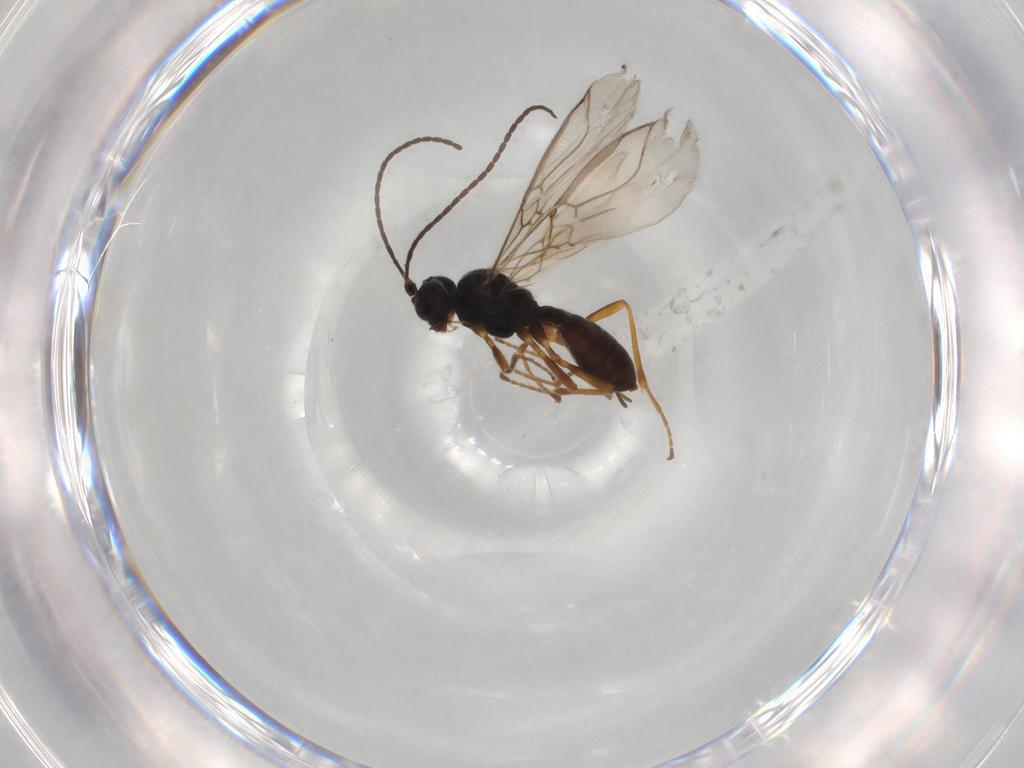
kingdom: Animalia
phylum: Arthropoda
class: Insecta
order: Hymenoptera
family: Braconidae
